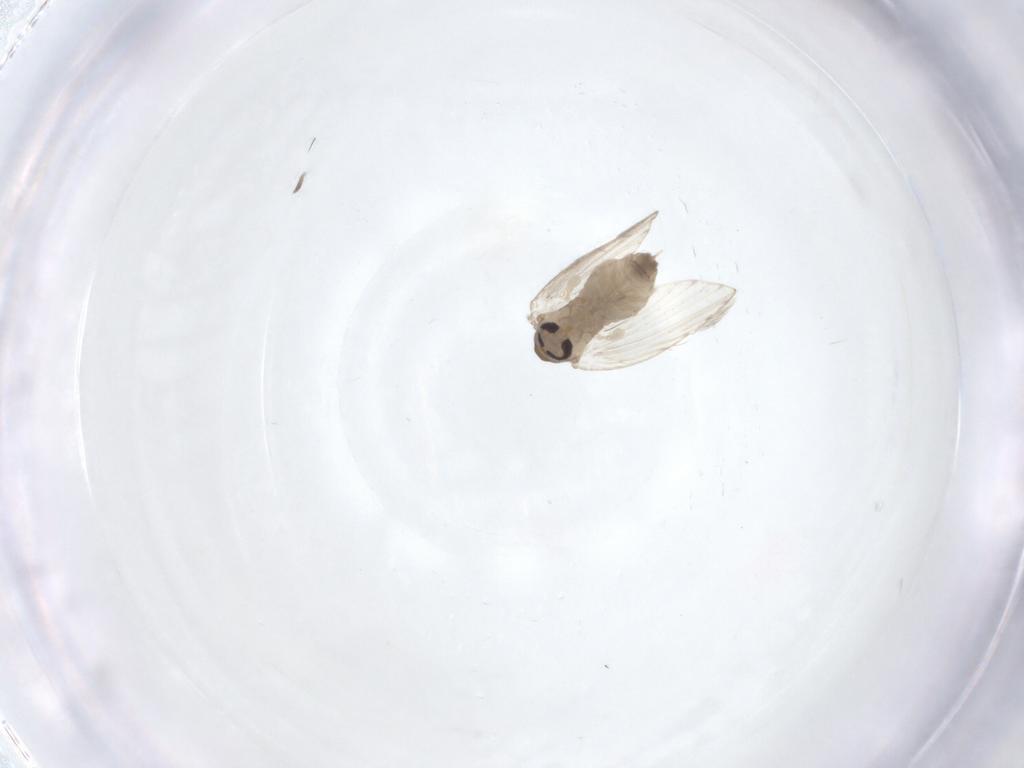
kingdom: Animalia
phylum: Arthropoda
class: Insecta
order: Diptera
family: Psychodidae
